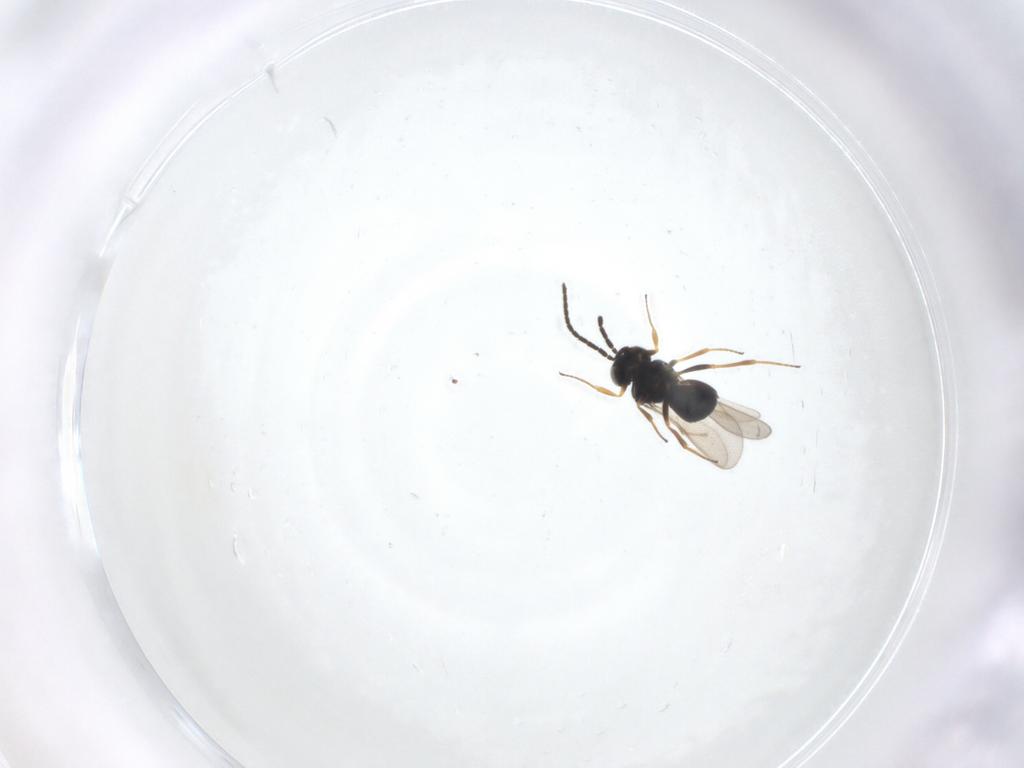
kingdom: Animalia
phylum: Arthropoda
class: Insecta
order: Hymenoptera
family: Scelionidae
